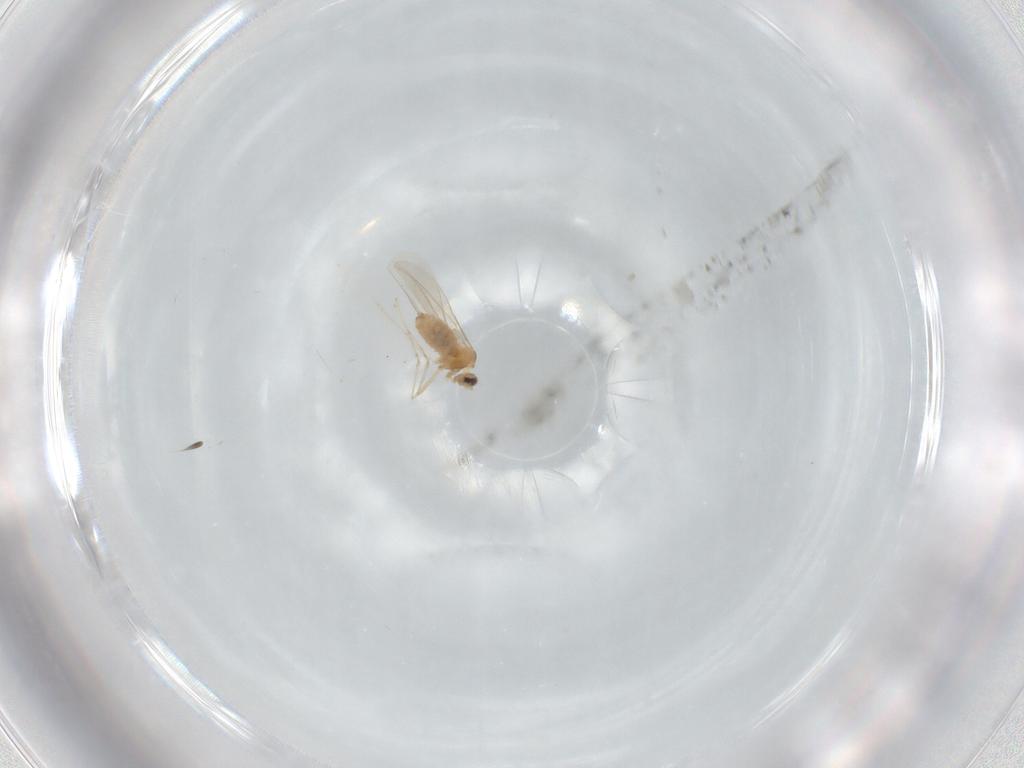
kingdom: Animalia
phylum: Arthropoda
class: Insecta
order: Diptera
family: Cecidomyiidae
